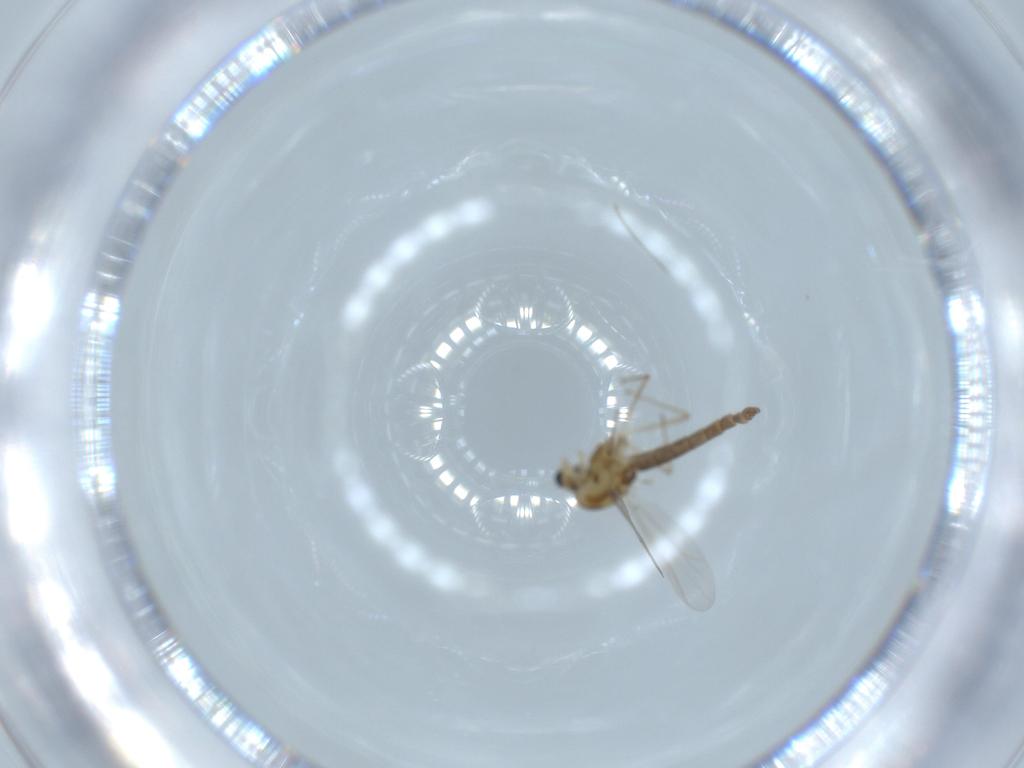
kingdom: Animalia
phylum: Arthropoda
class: Insecta
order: Diptera
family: Chironomidae
